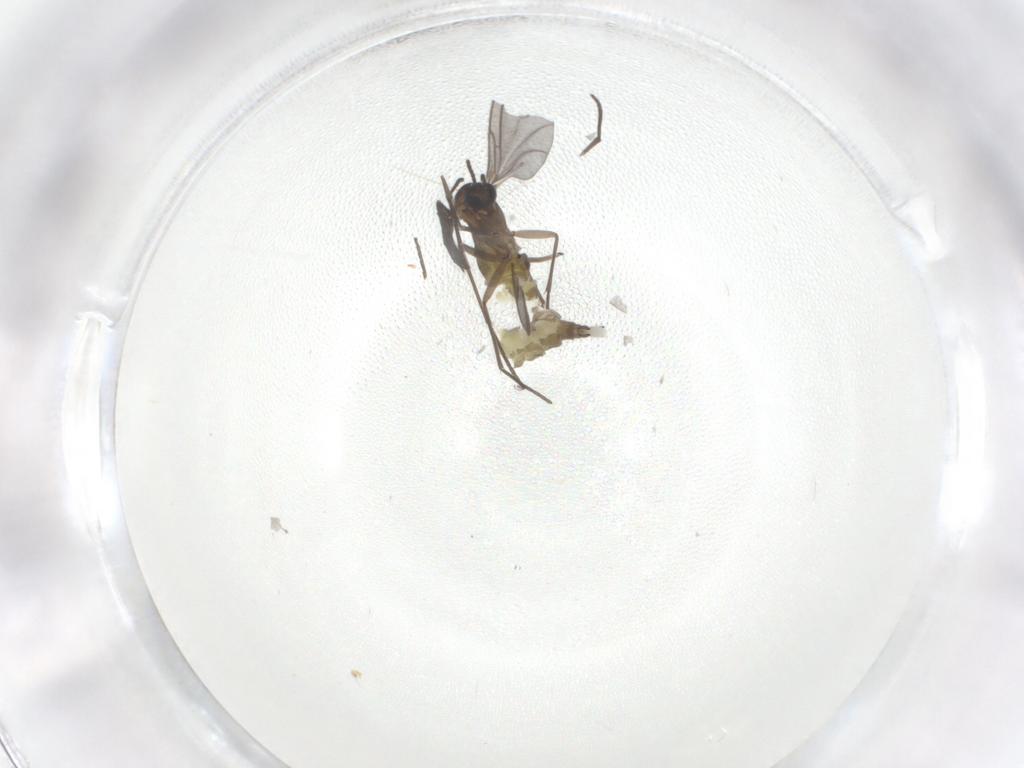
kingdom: Animalia
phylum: Arthropoda
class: Insecta
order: Diptera
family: Sciaridae
